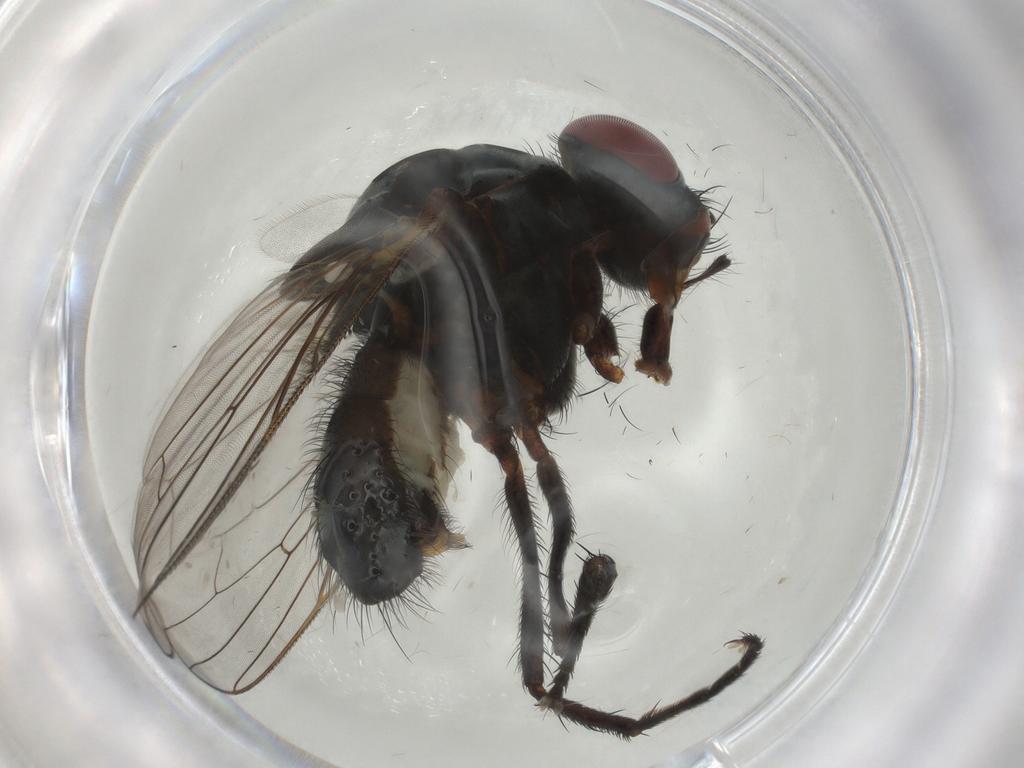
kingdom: Animalia
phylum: Arthropoda
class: Insecta
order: Diptera
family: Anthomyiidae
